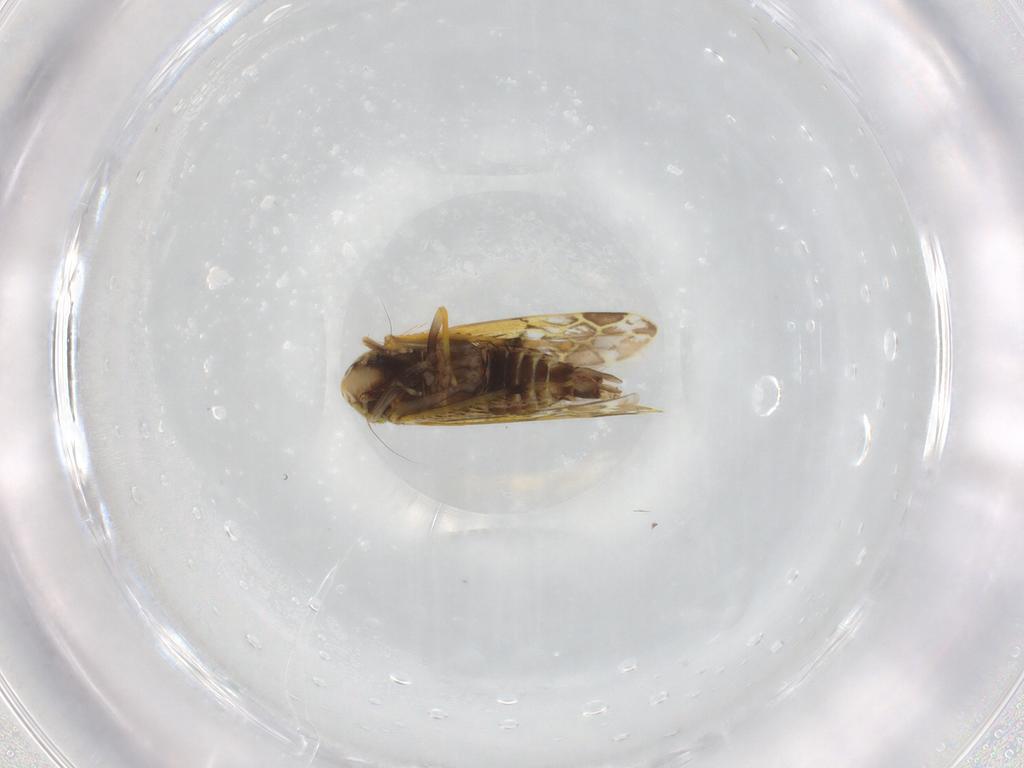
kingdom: Animalia
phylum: Arthropoda
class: Insecta
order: Hemiptera
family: Cicadellidae
